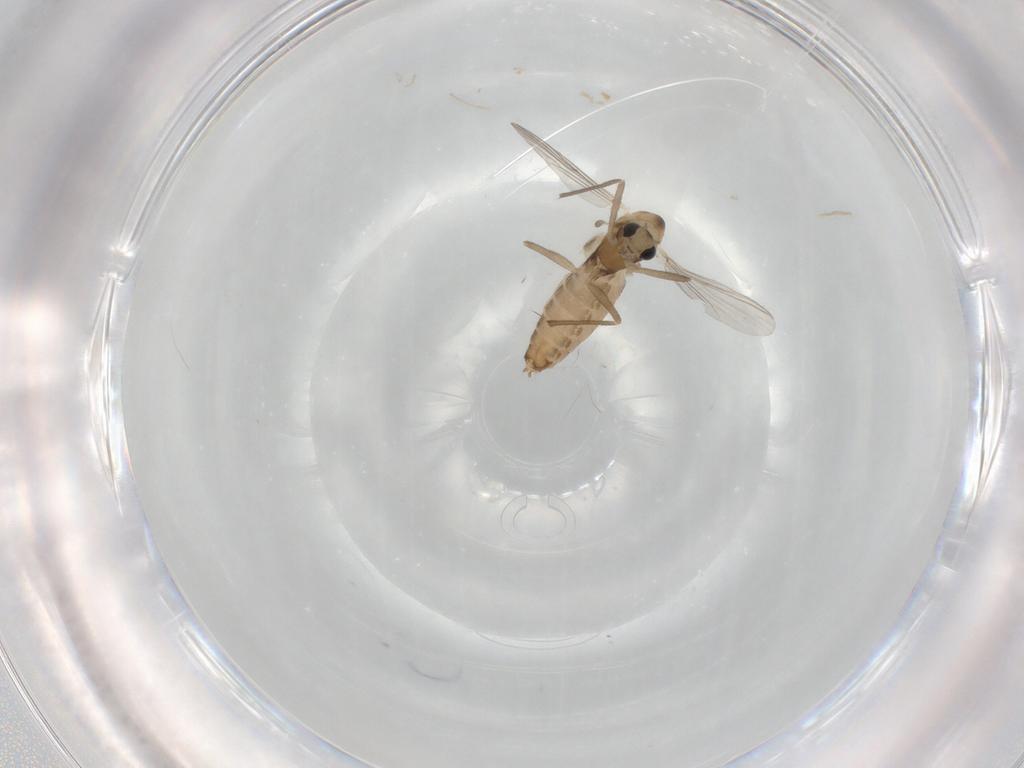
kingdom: Animalia
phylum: Arthropoda
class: Insecta
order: Diptera
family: Chironomidae
